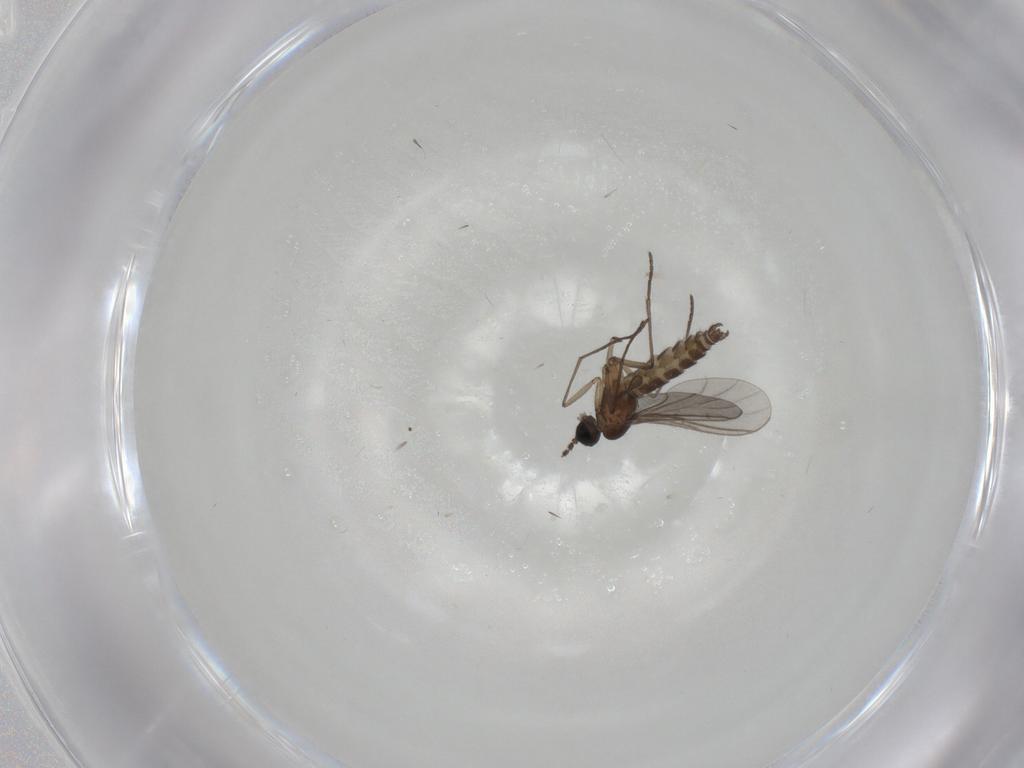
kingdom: Animalia
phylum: Arthropoda
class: Insecta
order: Diptera
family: Sciaridae
